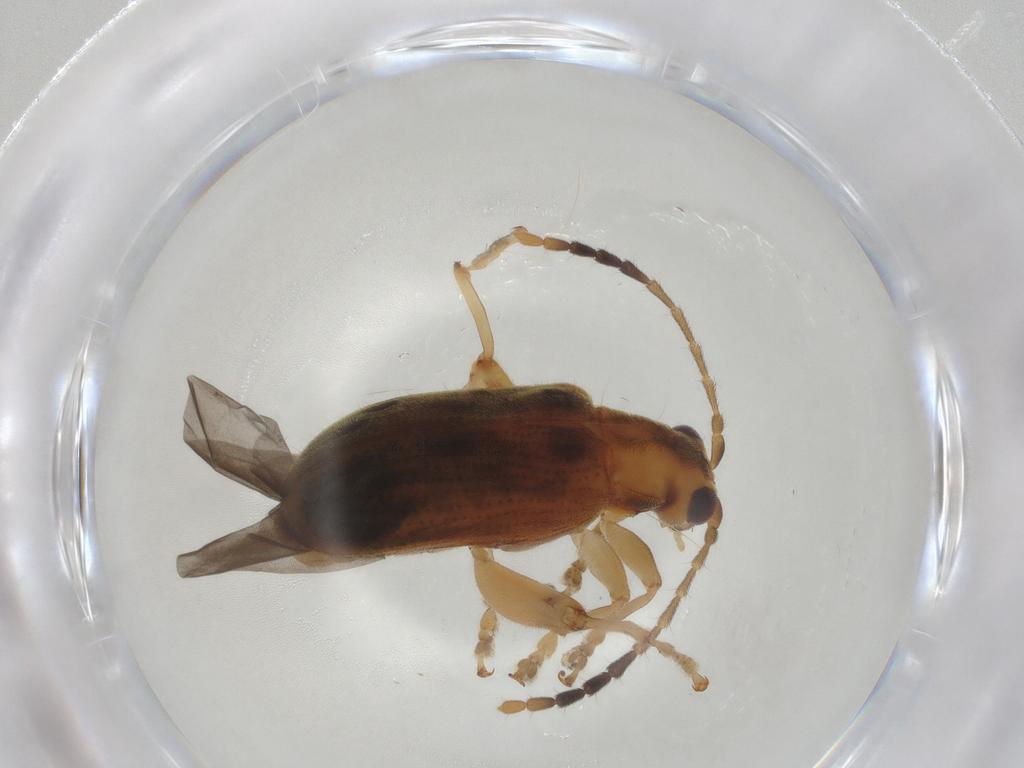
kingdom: Animalia
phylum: Arthropoda
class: Insecta
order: Coleoptera
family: Chrysomelidae
